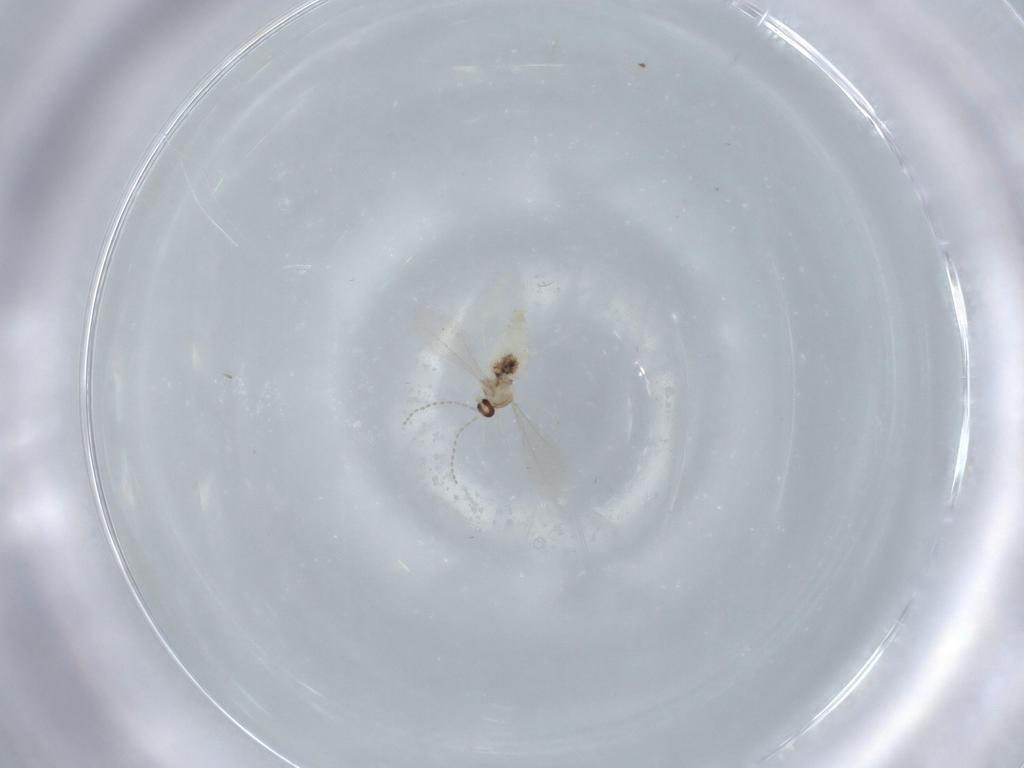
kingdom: Animalia
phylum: Arthropoda
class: Insecta
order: Diptera
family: Cecidomyiidae
